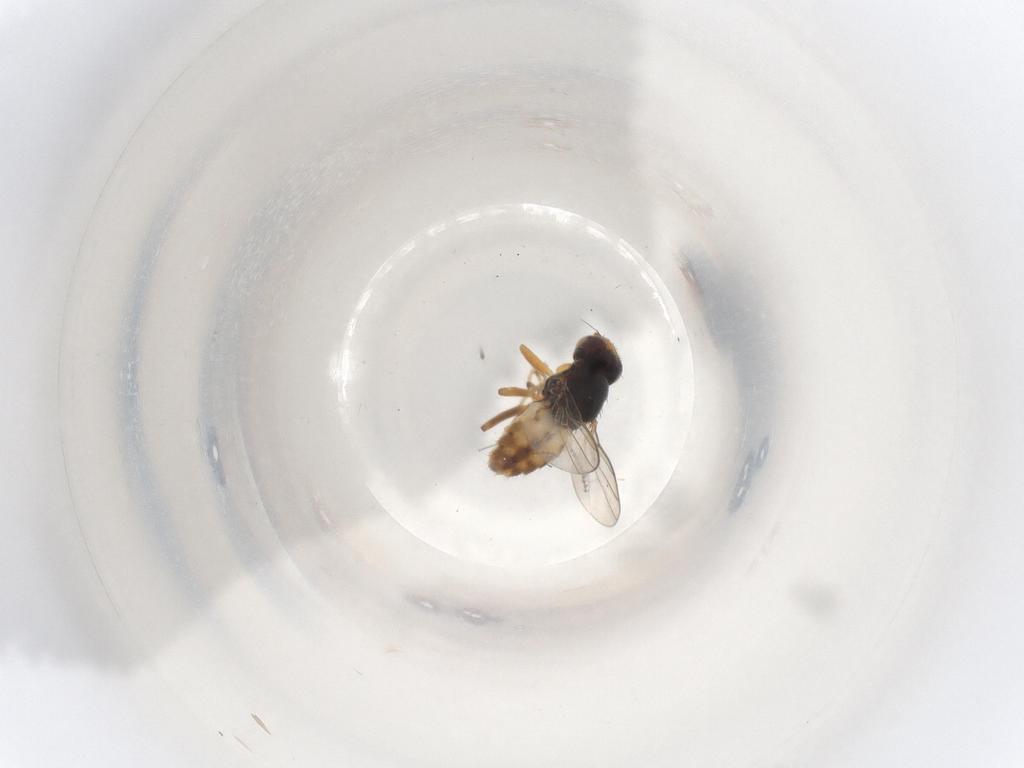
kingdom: Animalia
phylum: Arthropoda
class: Insecta
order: Diptera
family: Chloropidae
